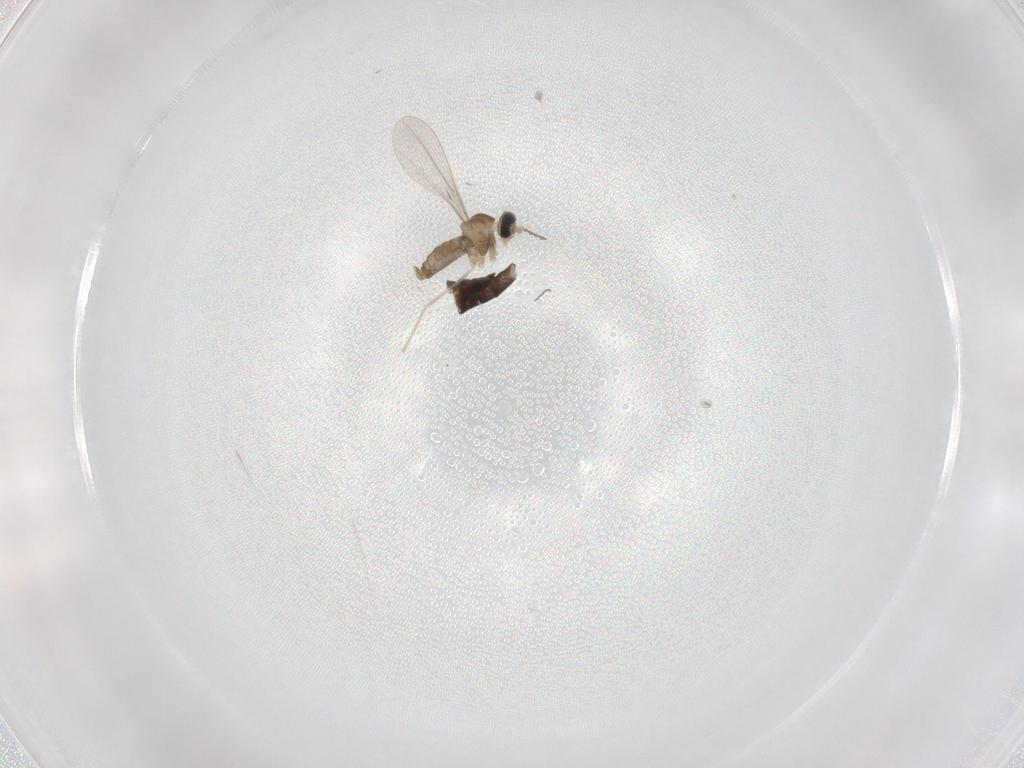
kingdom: Animalia
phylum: Arthropoda
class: Insecta
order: Diptera
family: Chironomidae
